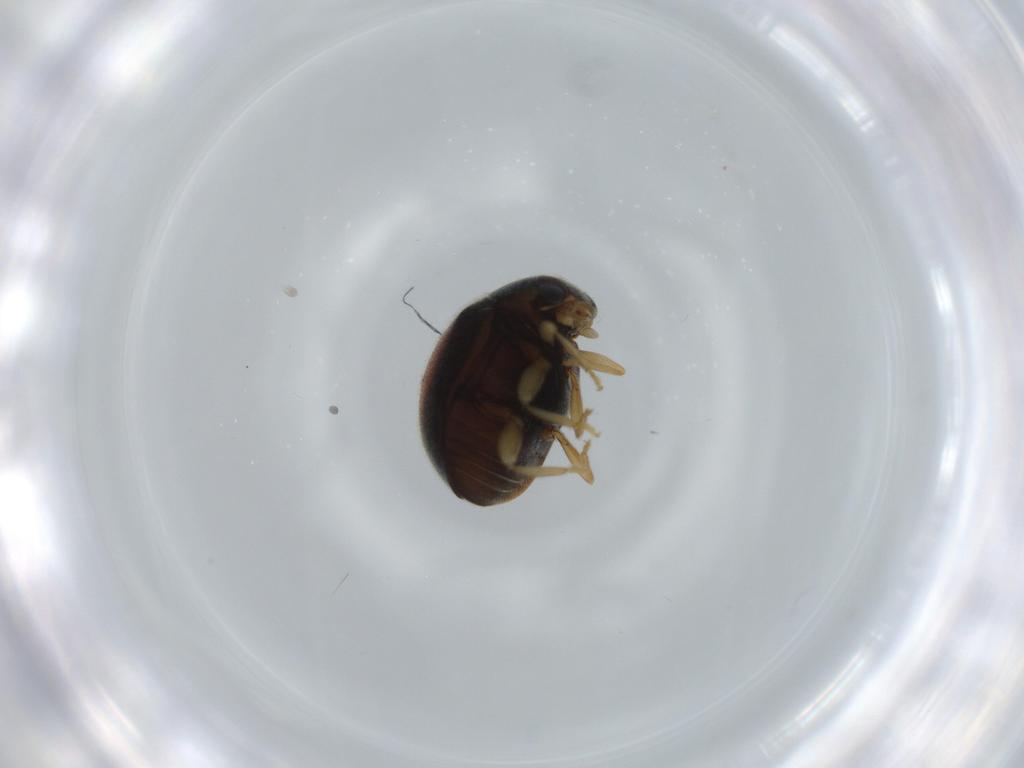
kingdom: Animalia
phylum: Arthropoda
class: Insecta
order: Coleoptera
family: Coccinellidae
